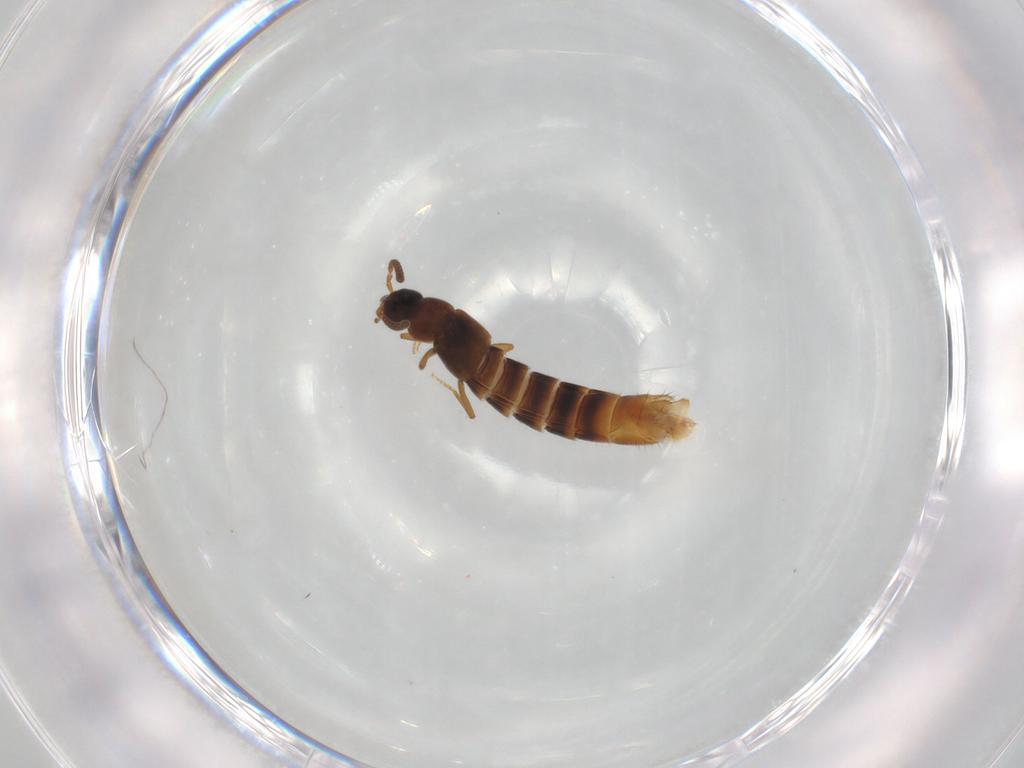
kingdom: Animalia
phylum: Arthropoda
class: Insecta
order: Coleoptera
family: Staphylinidae
